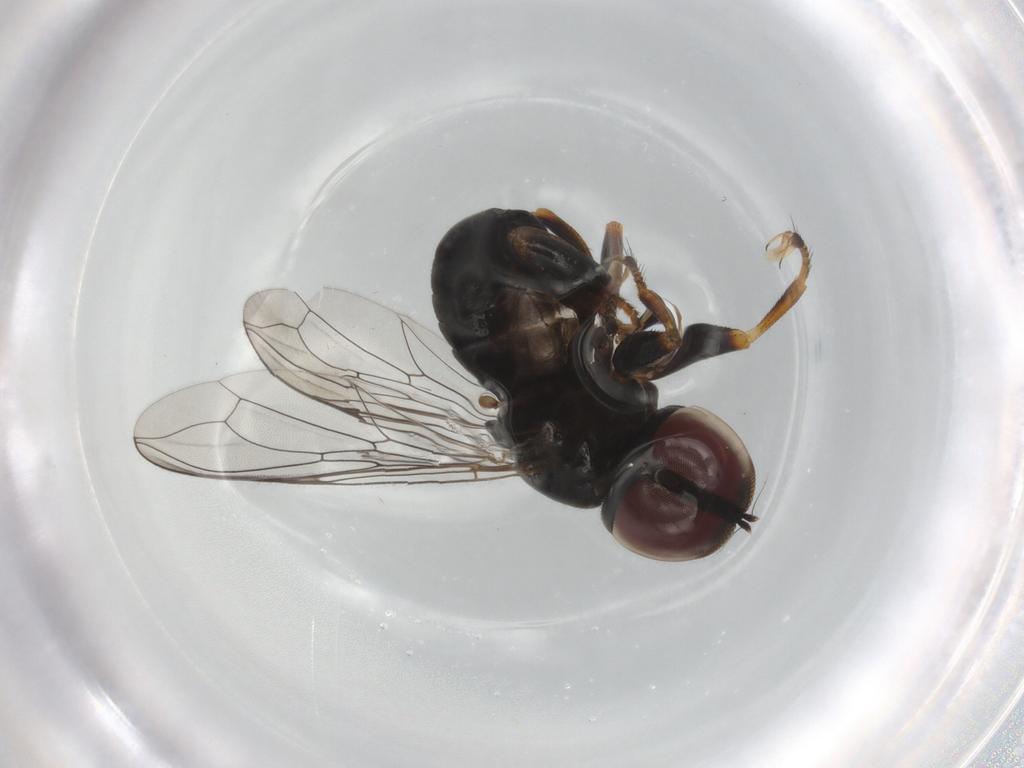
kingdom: Animalia
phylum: Arthropoda
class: Insecta
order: Diptera
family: Pipunculidae
